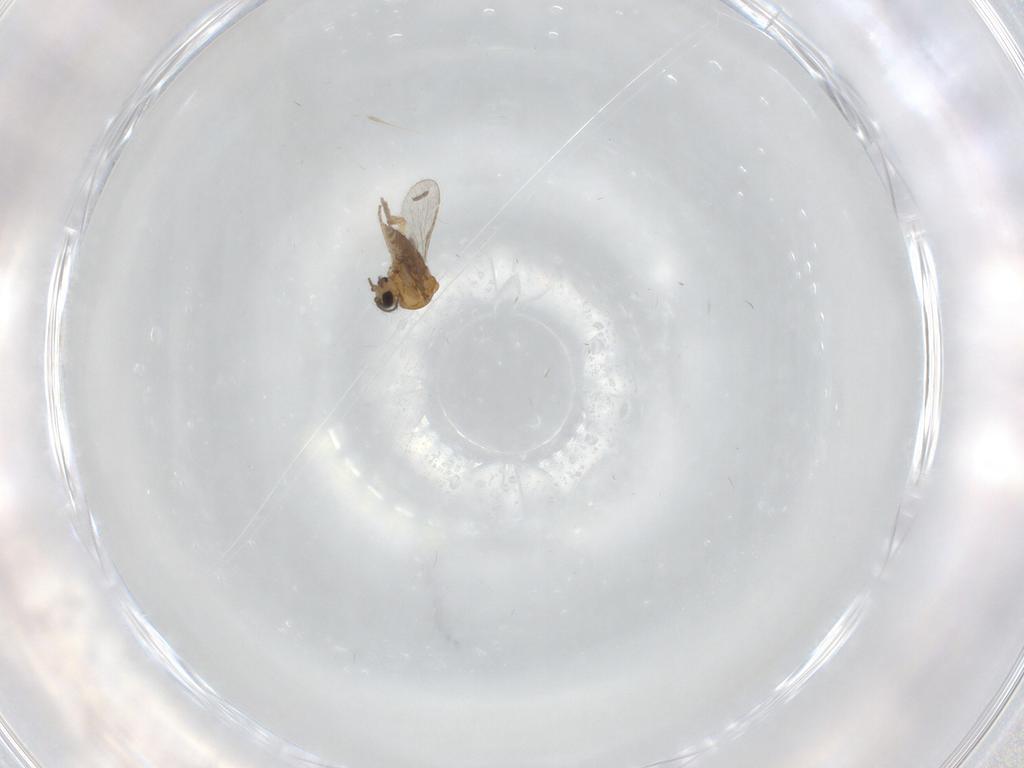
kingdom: Animalia
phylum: Arthropoda
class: Insecta
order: Diptera
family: Ceratopogonidae
